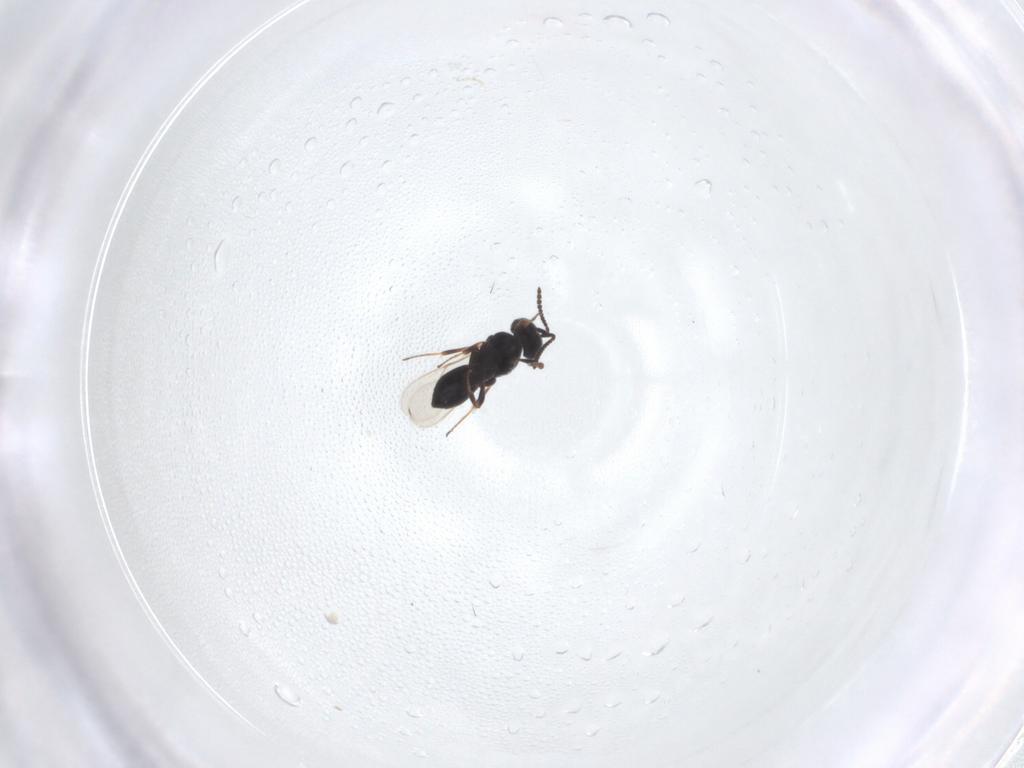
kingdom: Animalia
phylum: Arthropoda
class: Insecta
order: Hymenoptera
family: Scelionidae
